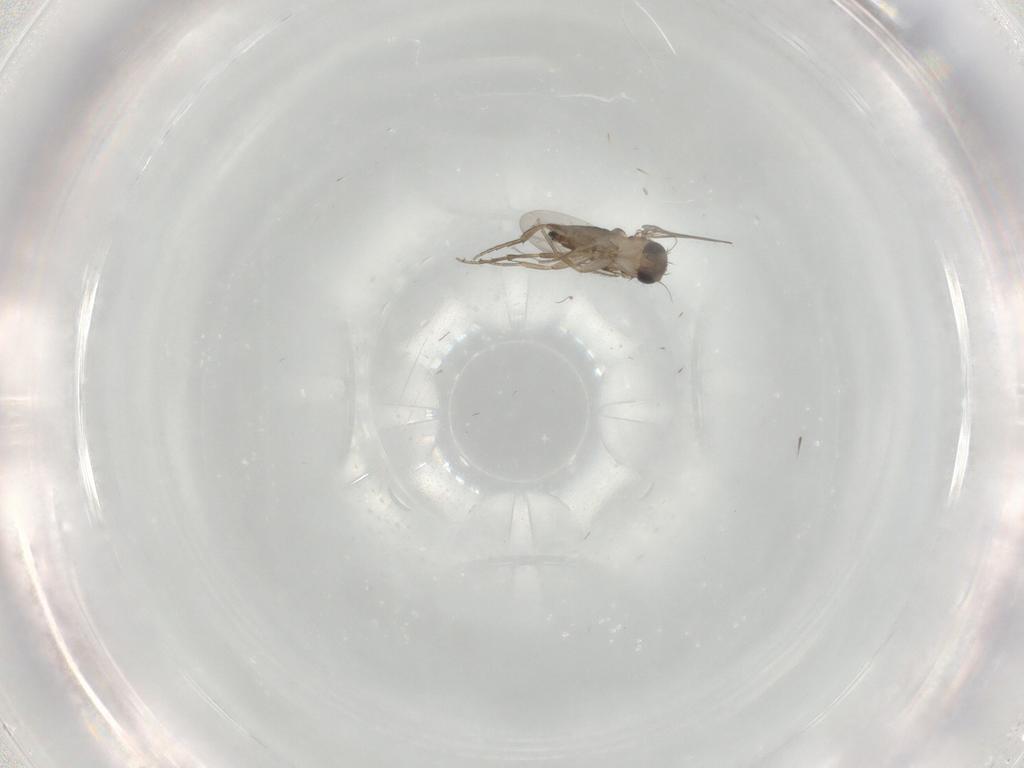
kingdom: Animalia
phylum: Arthropoda
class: Insecta
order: Diptera
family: Phoridae
